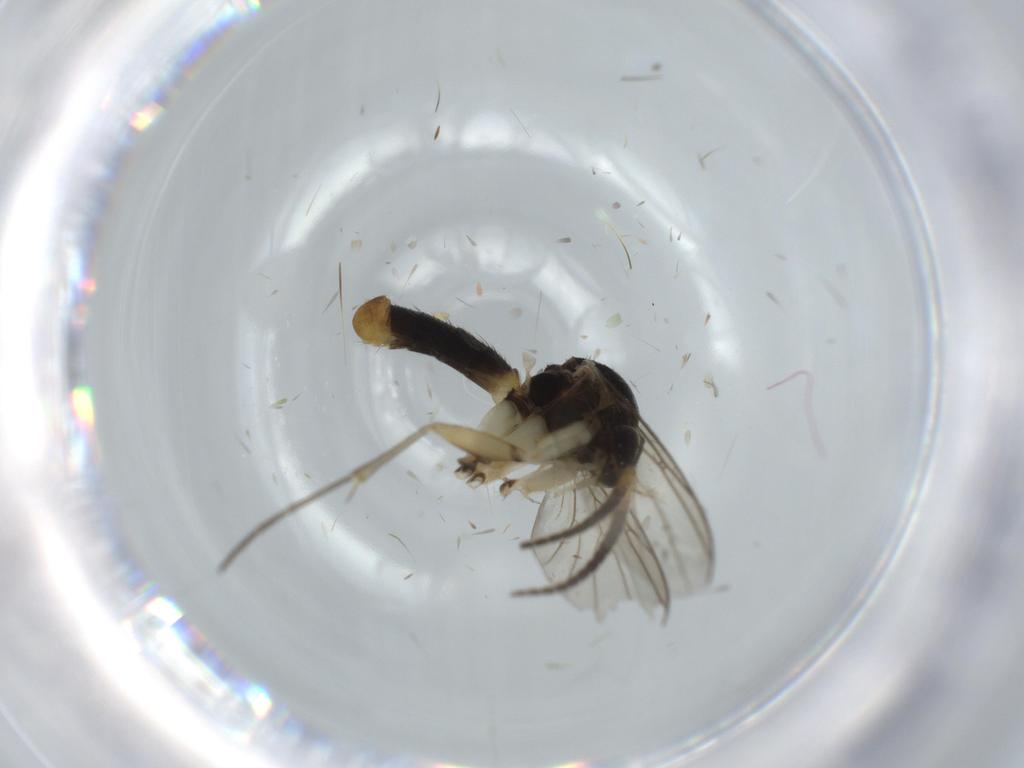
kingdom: Animalia
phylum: Arthropoda
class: Insecta
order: Diptera
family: Mycetophilidae
